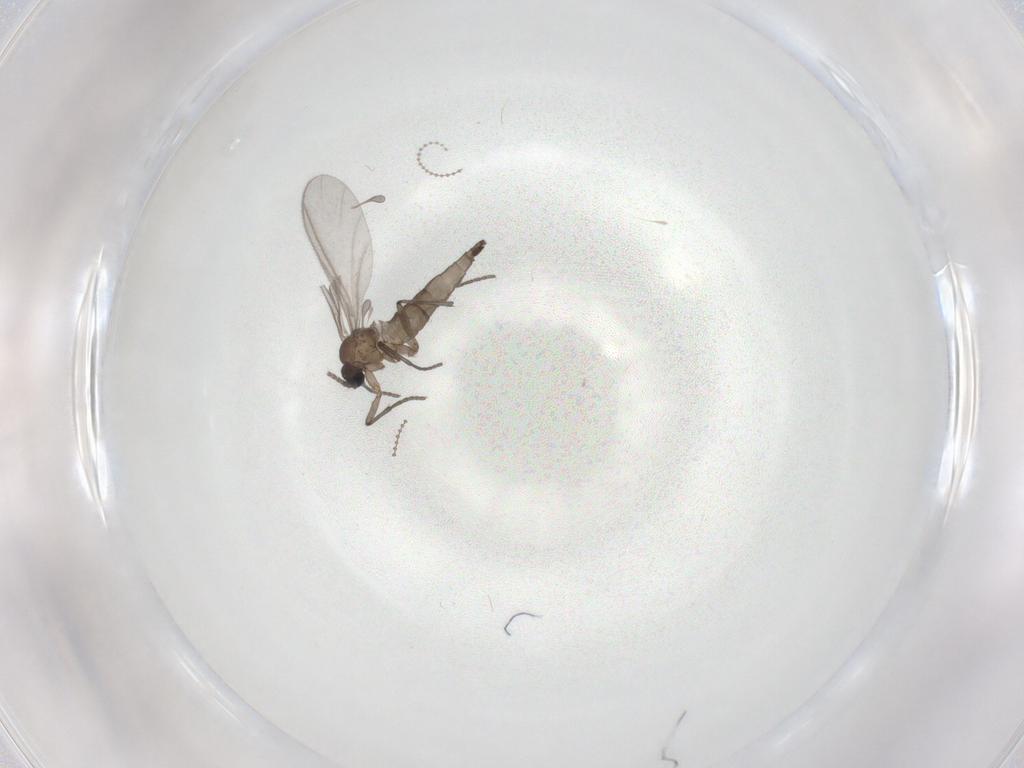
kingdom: Animalia
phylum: Arthropoda
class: Insecta
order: Diptera
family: Sciaridae
